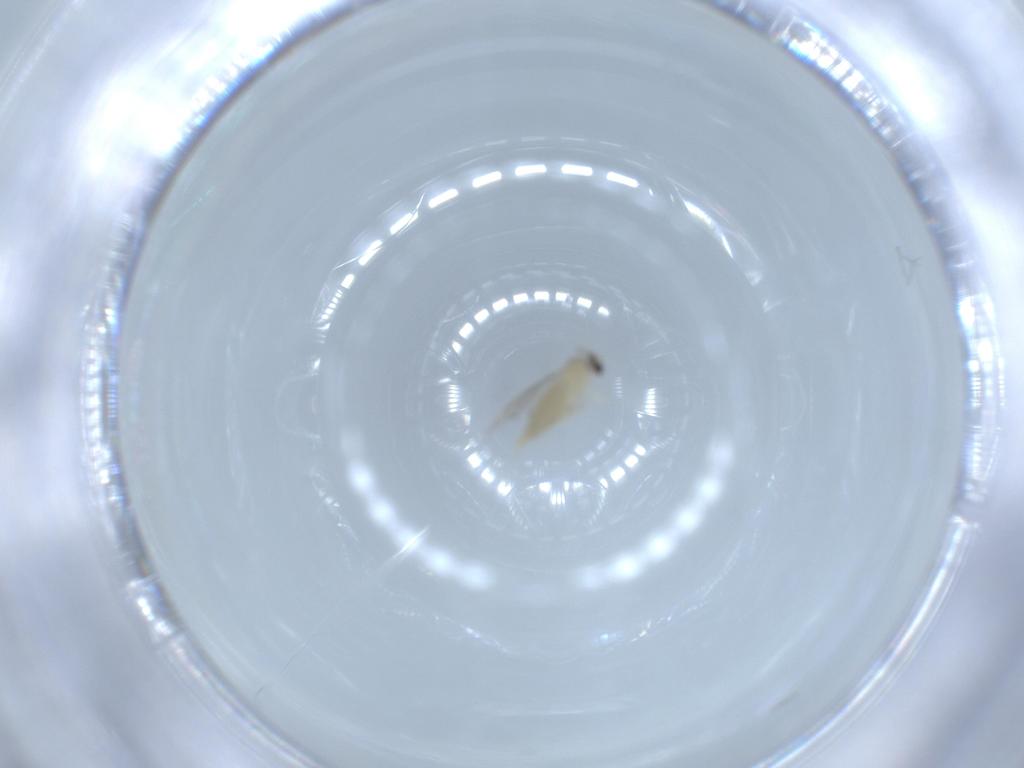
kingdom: Animalia
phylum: Arthropoda
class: Insecta
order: Diptera
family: Cecidomyiidae
